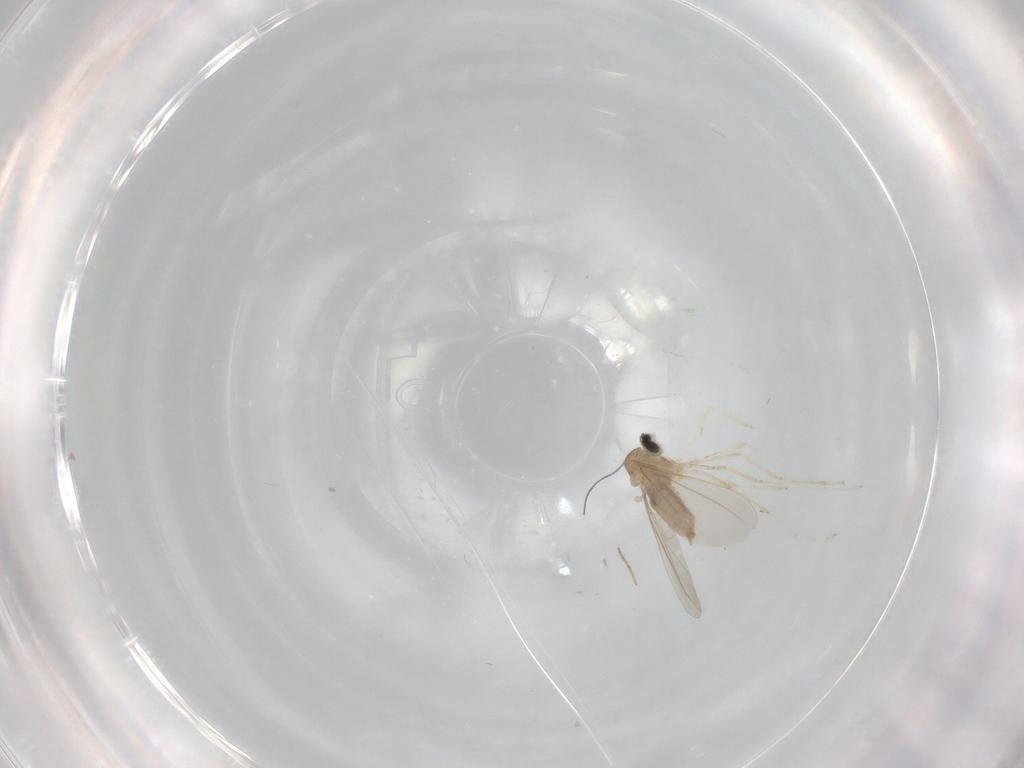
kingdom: Animalia
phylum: Arthropoda
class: Insecta
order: Diptera
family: Cecidomyiidae
